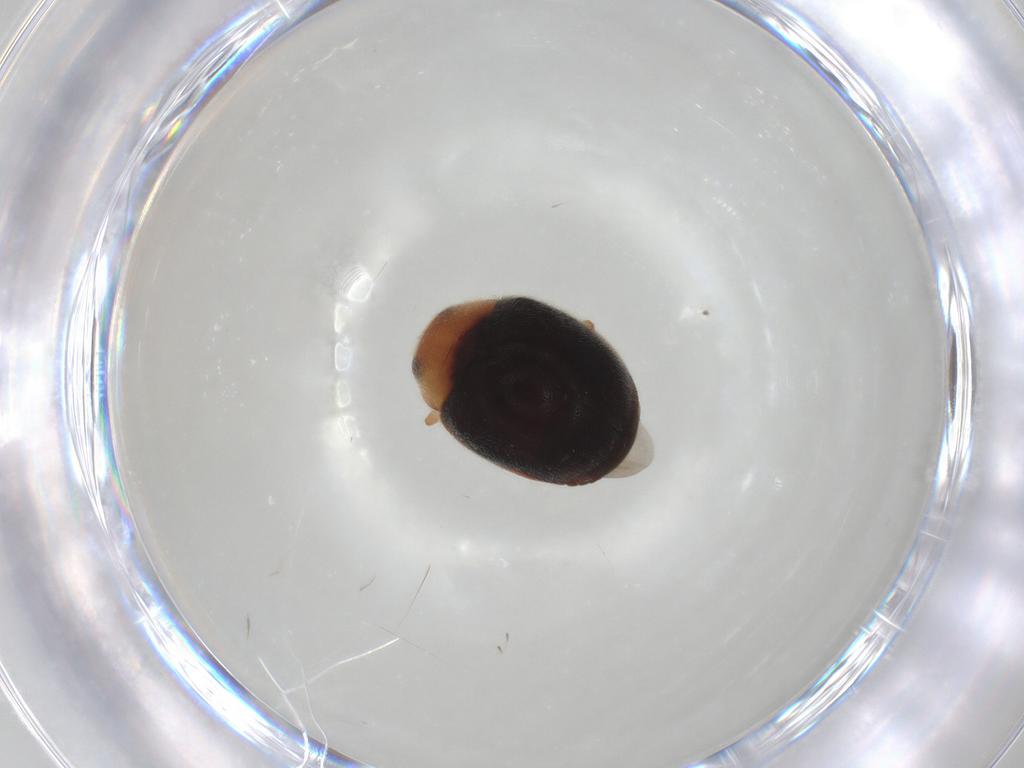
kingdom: Animalia
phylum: Arthropoda
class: Insecta
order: Coleoptera
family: Coccinellidae
